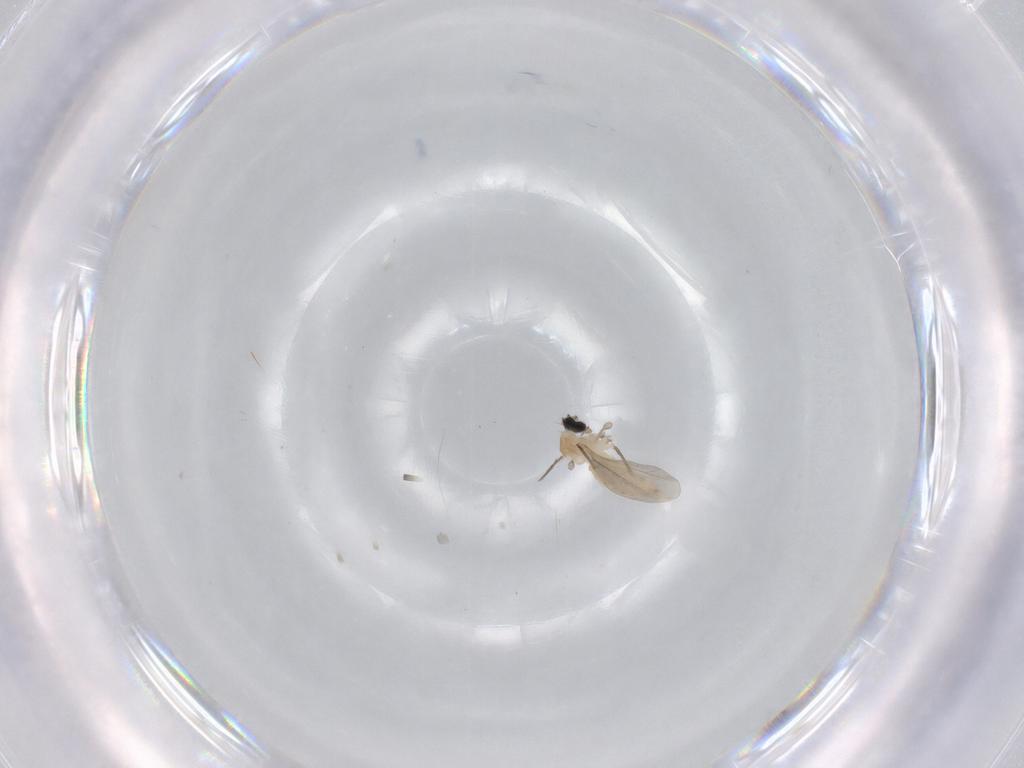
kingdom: Animalia
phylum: Arthropoda
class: Insecta
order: Diptera
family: Cecidomyiidae
